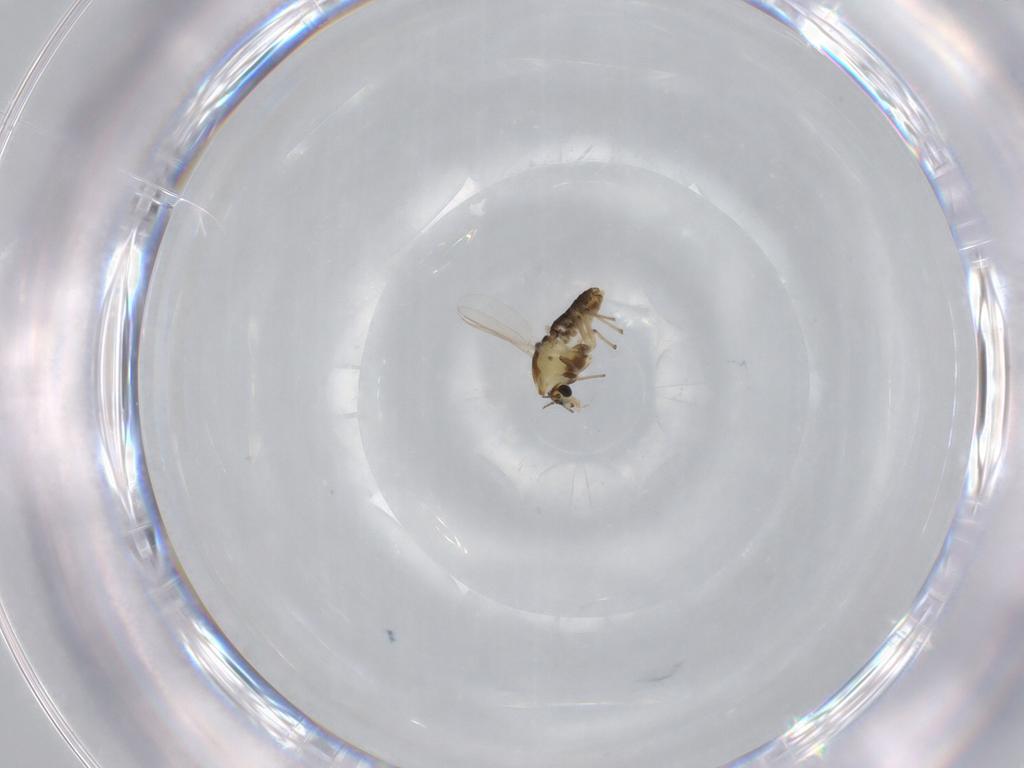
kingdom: Animalia
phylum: Arthropoda
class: Insecta
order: Diptera
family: Chironomidae
